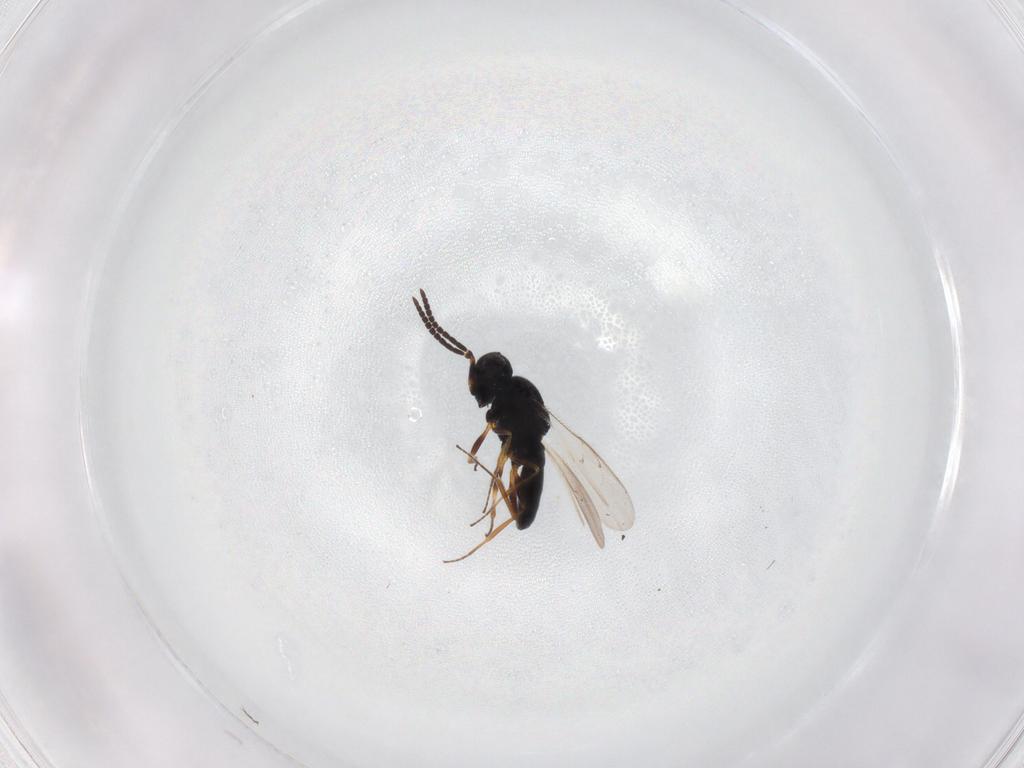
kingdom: Animalia
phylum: Arthropoda
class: Insecta
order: Hymenoptera
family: Scelionidae
